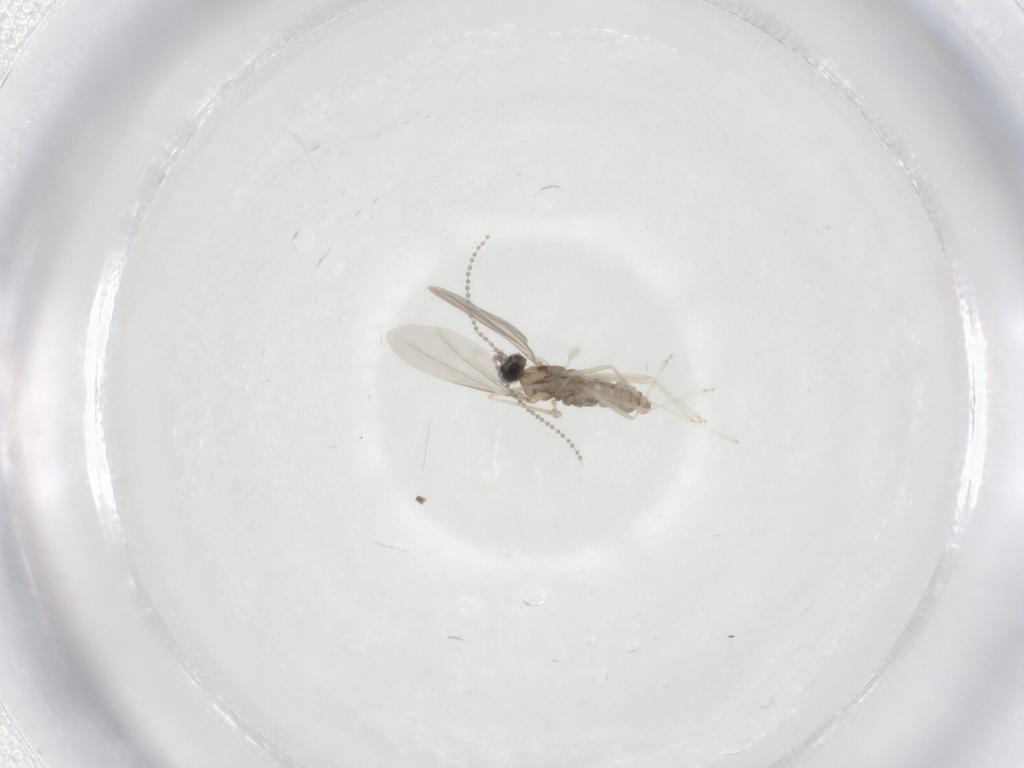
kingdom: Animalia
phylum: Arthropoda
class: Insecta
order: Diptera
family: Cecidomyiidae
